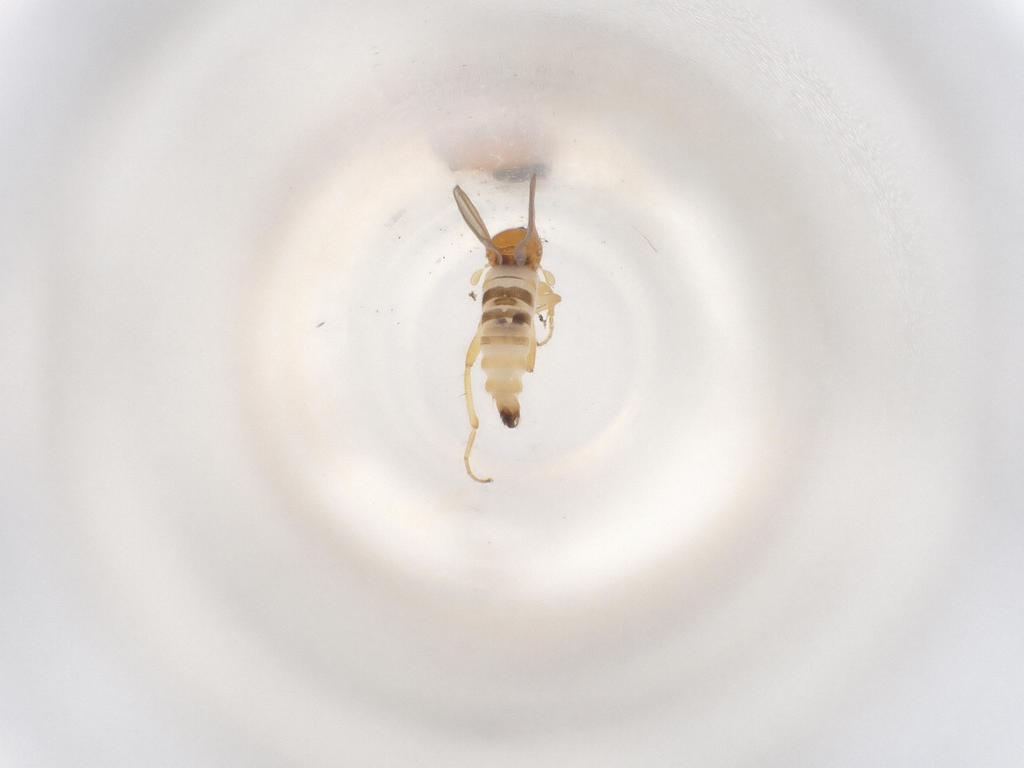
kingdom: Animalia
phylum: Arthropoda
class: Insecta
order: Diptera
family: Hybotidae
